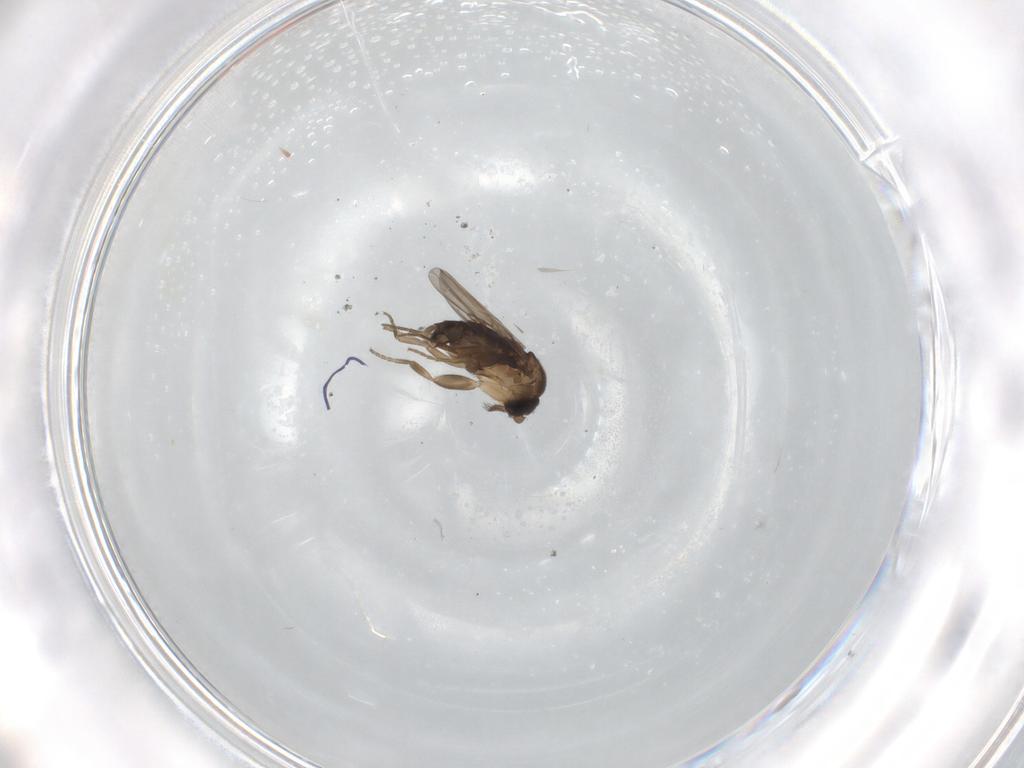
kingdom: Animalia
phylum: Arthropoda
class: Insecta
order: Diptera
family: Phoridae
